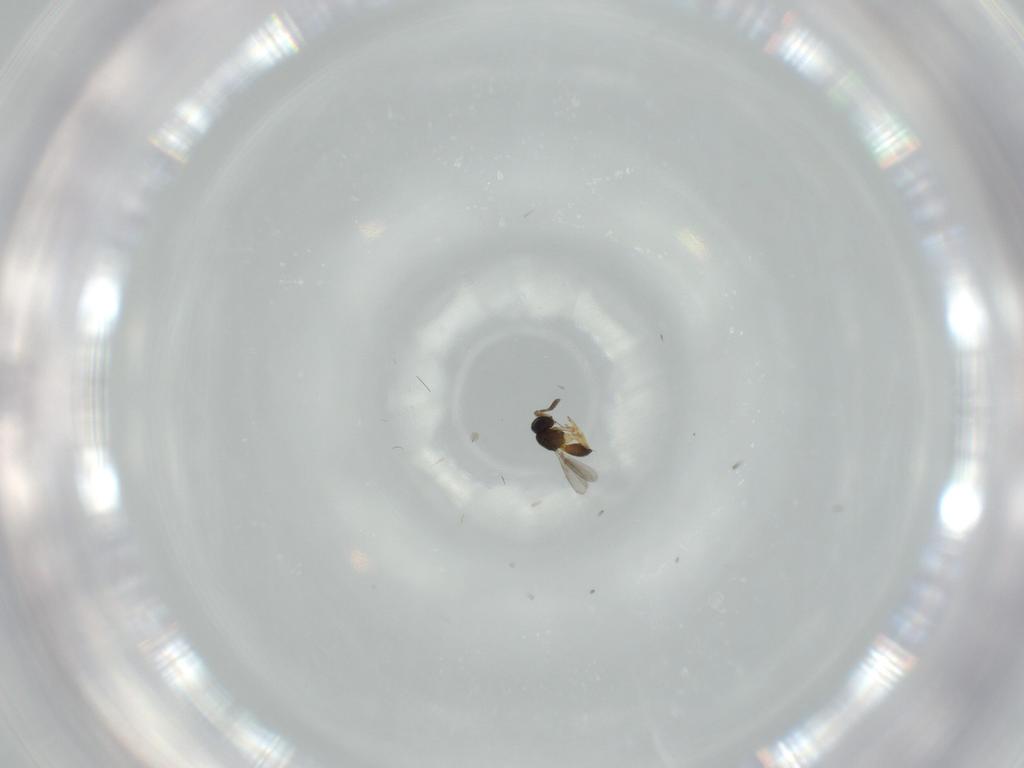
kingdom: Animalia
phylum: Arthropoda
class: Insecta
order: Hymenoptera
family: Scelionidae
